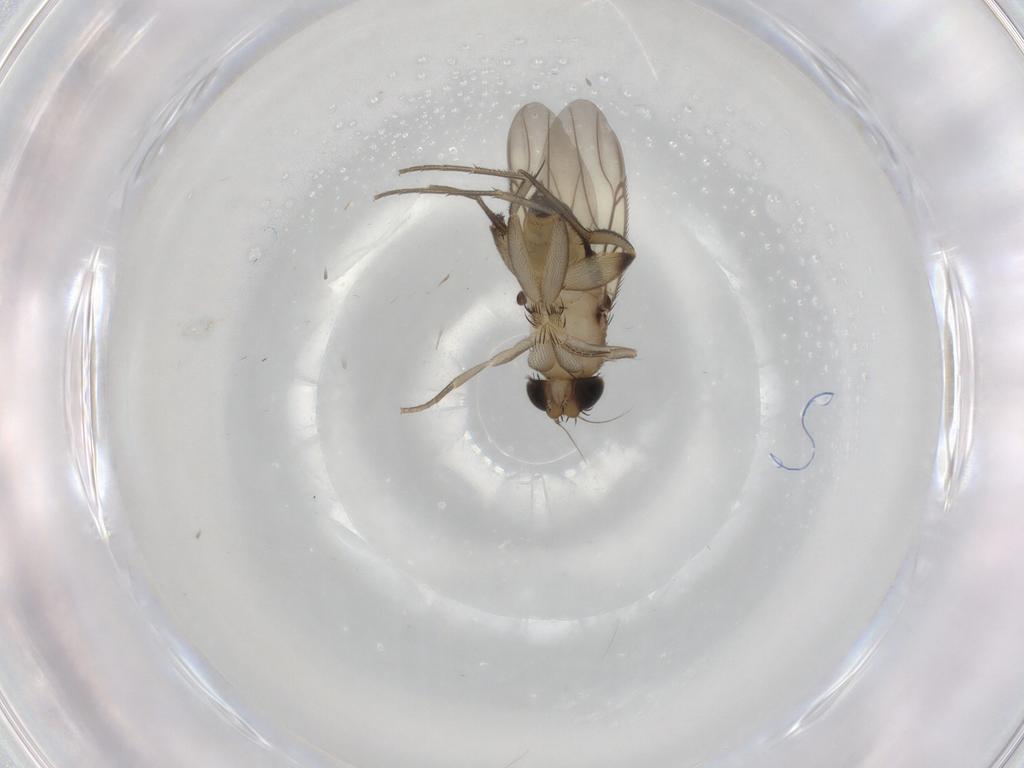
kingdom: Animalia
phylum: Arthropoda
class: Insecta
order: Diptera
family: Phoridae
